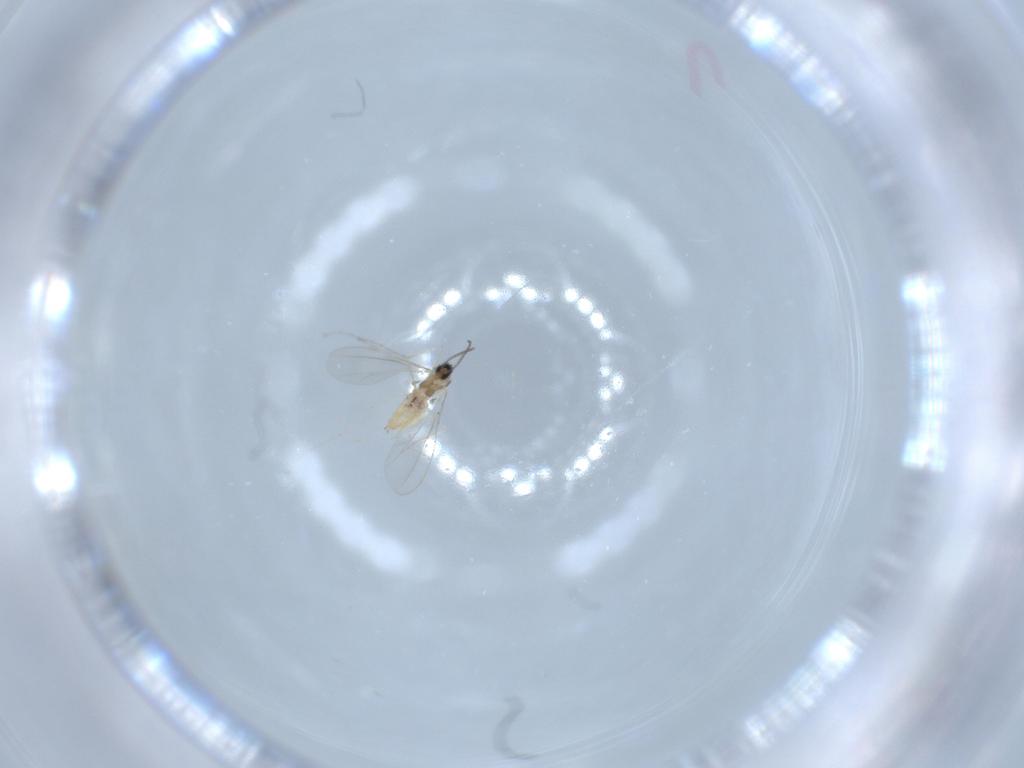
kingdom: Animalia
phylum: Arthropoda
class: Insecta
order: Diptera
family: Cecidomyiidae
